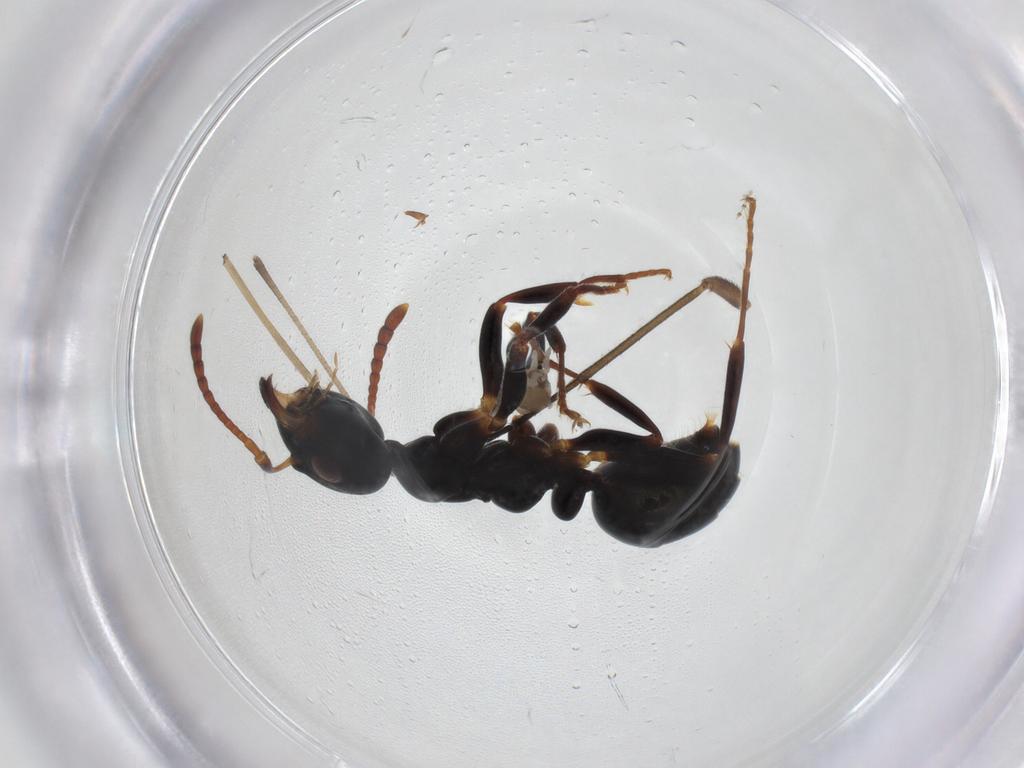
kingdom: Animalia
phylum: Arthropoda
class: Insecta
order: Hymenoptera
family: Formicidae
